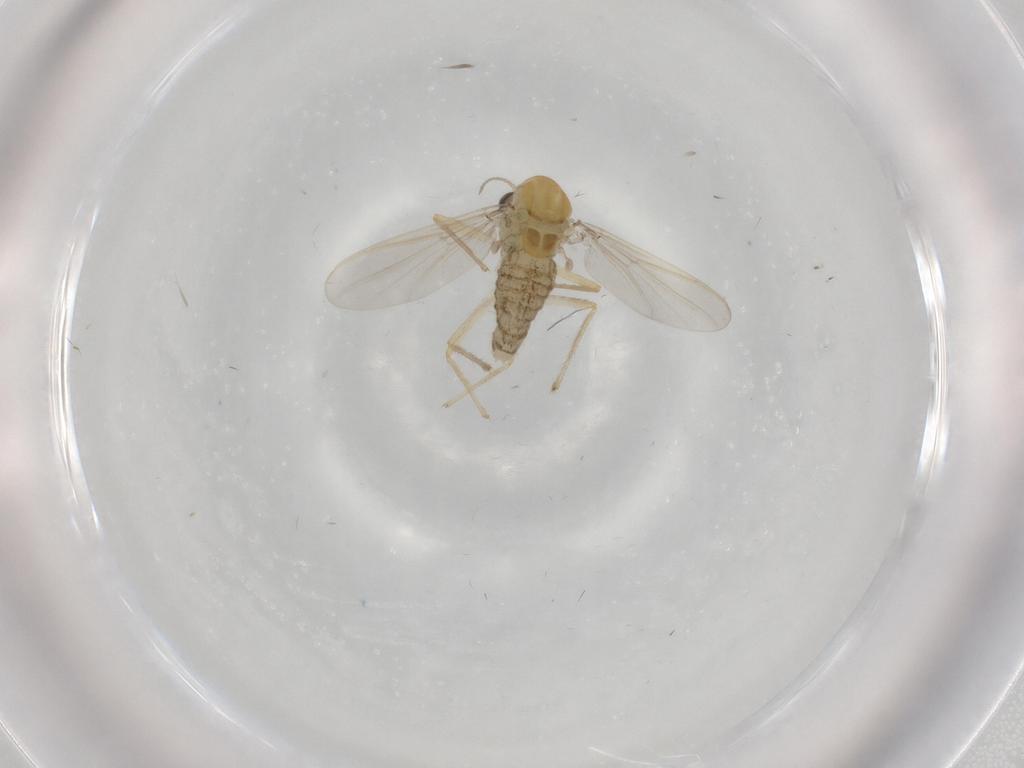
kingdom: Animalia
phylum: Arthropoda
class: Insecta
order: Diptera
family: Chironomidae
